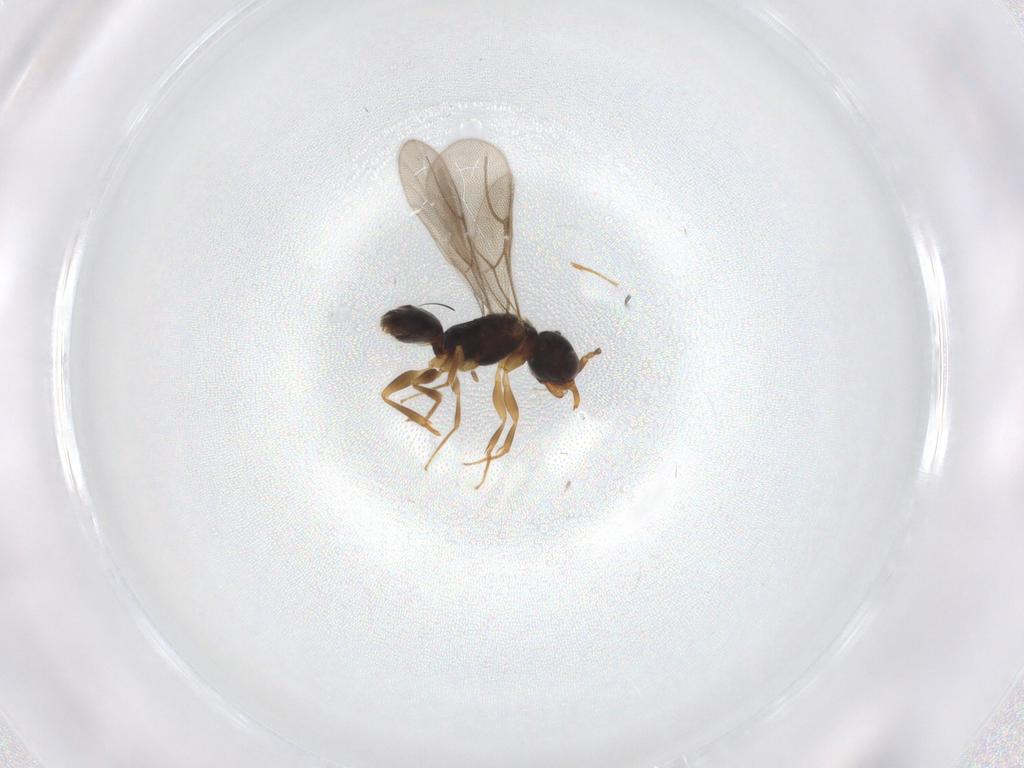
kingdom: Animalia
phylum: Arthropoda
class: Insecta
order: Hymenoptera
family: Bethylidae
